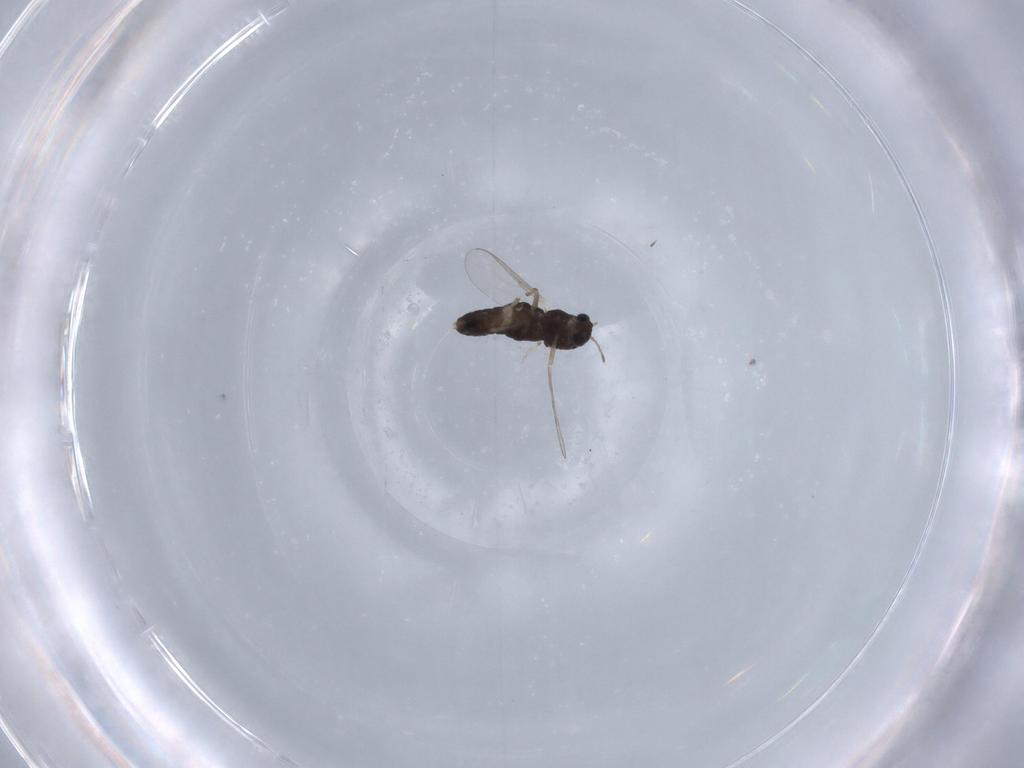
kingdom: Animalia
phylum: Arthropoda
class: Insecta
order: Diptera
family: Chironomidae
